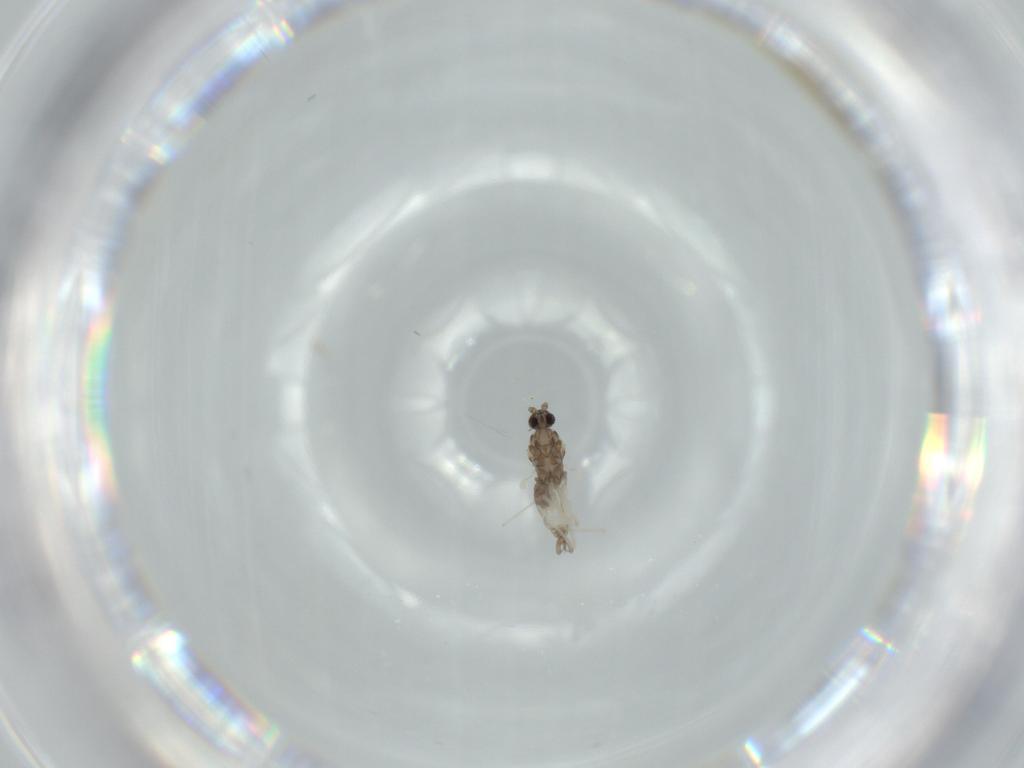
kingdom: Animalia
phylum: Arthropoda
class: Insecta
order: Diptera
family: Cecidomyiidae
